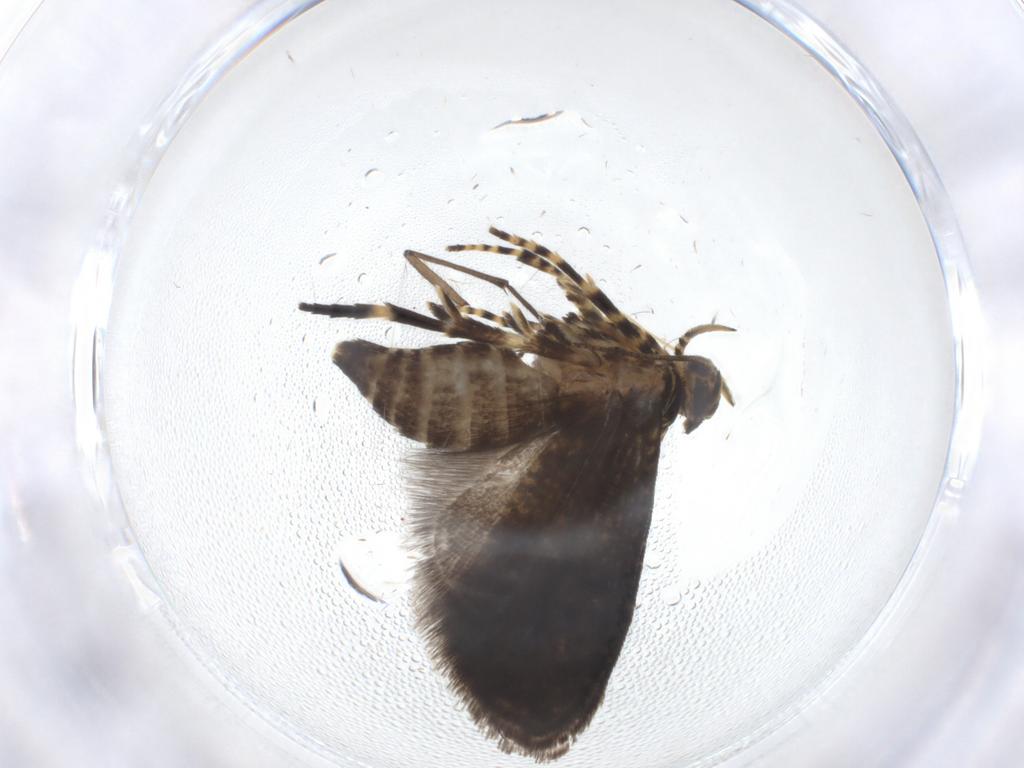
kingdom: Animalia
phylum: Arthropoda
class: Insecta
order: Lepidoptera
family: Geometridae
